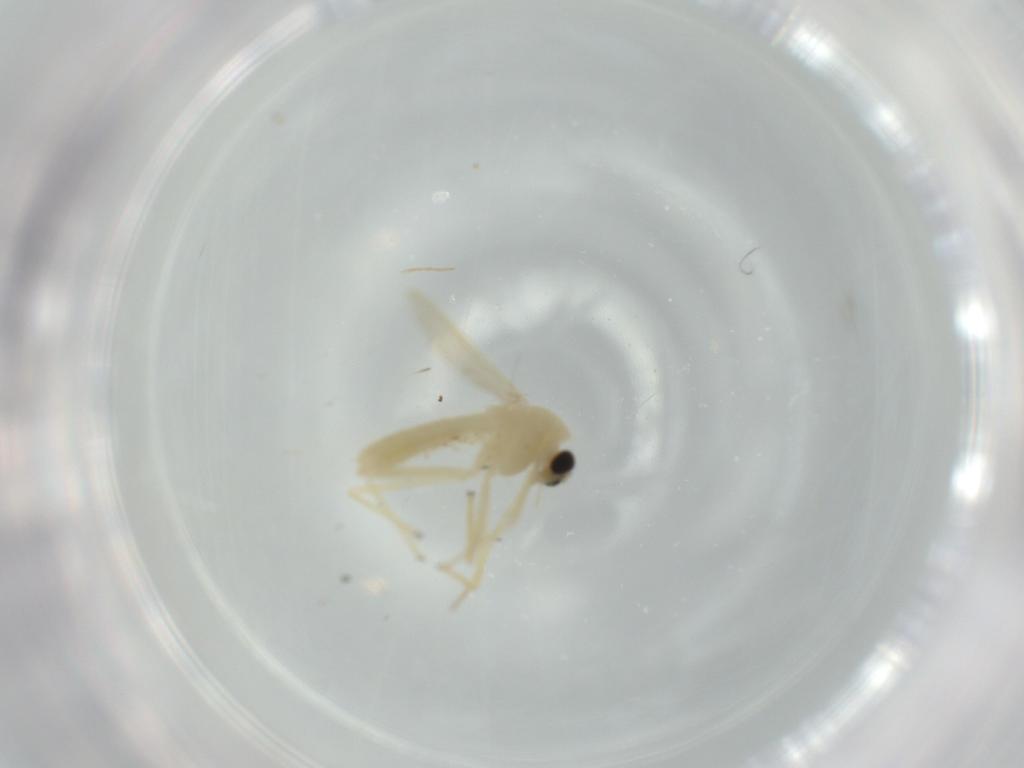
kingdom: Animalia
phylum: Arthropoda
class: Insecta
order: Diptera
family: Chironomidae
